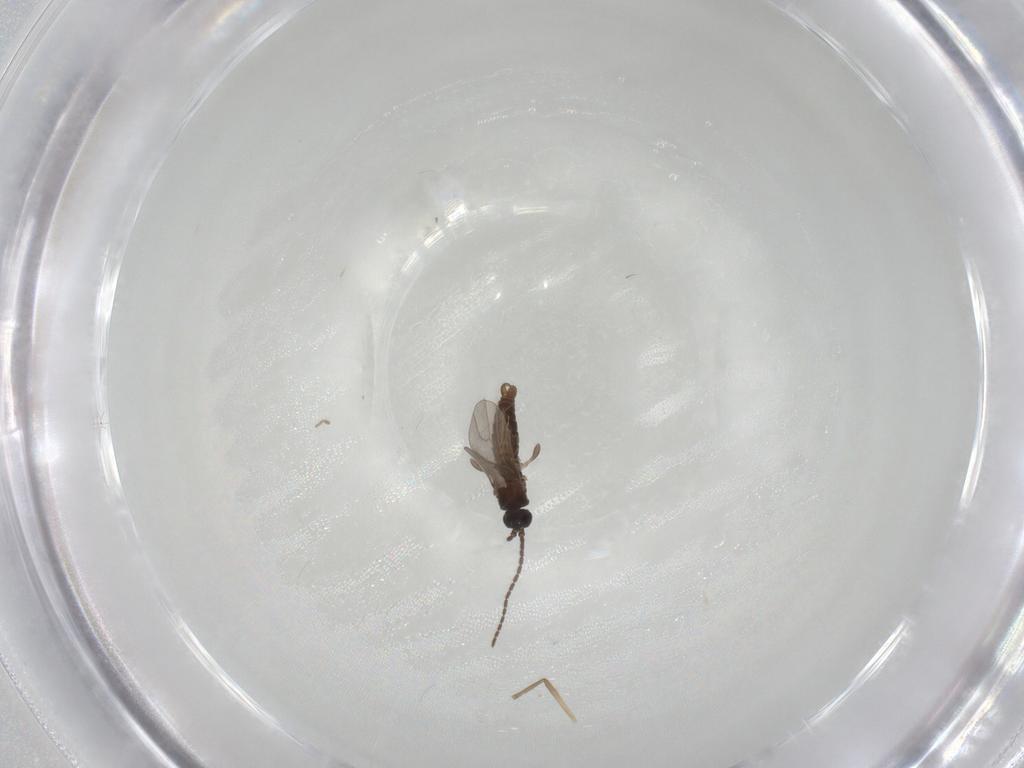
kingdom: Animalia
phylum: Arthropoda
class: Insecta
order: Diptera
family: Sciaridae
